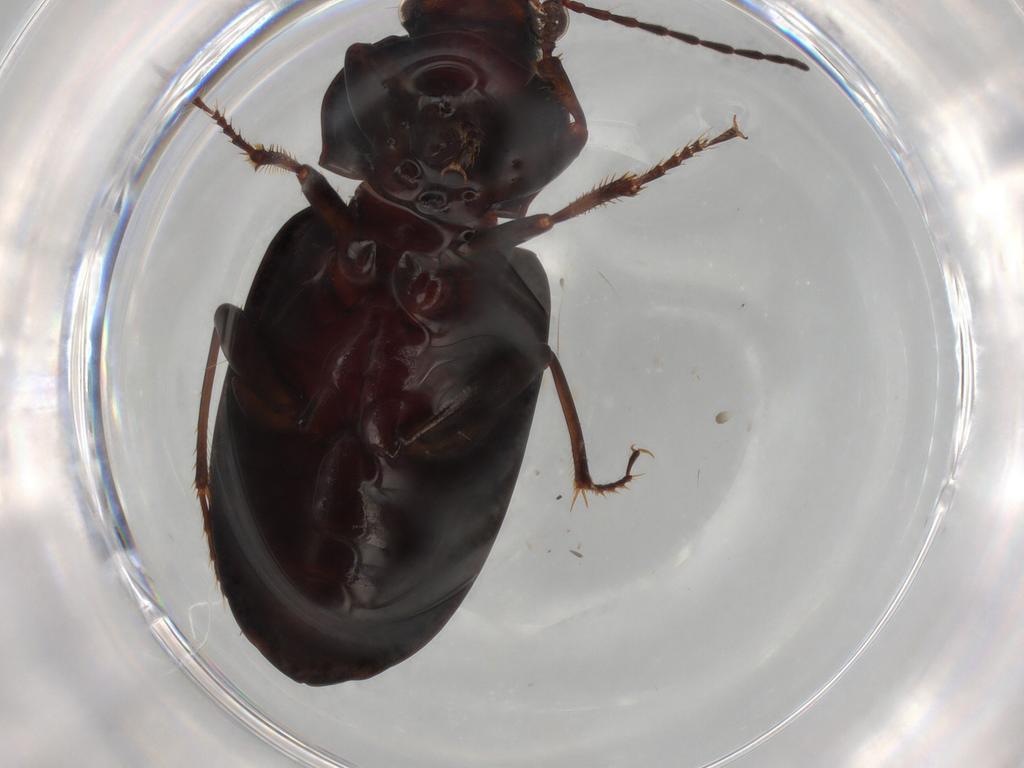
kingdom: Animalia
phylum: Arthropoda
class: Insecta
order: Coleoptera
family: Carabidae
